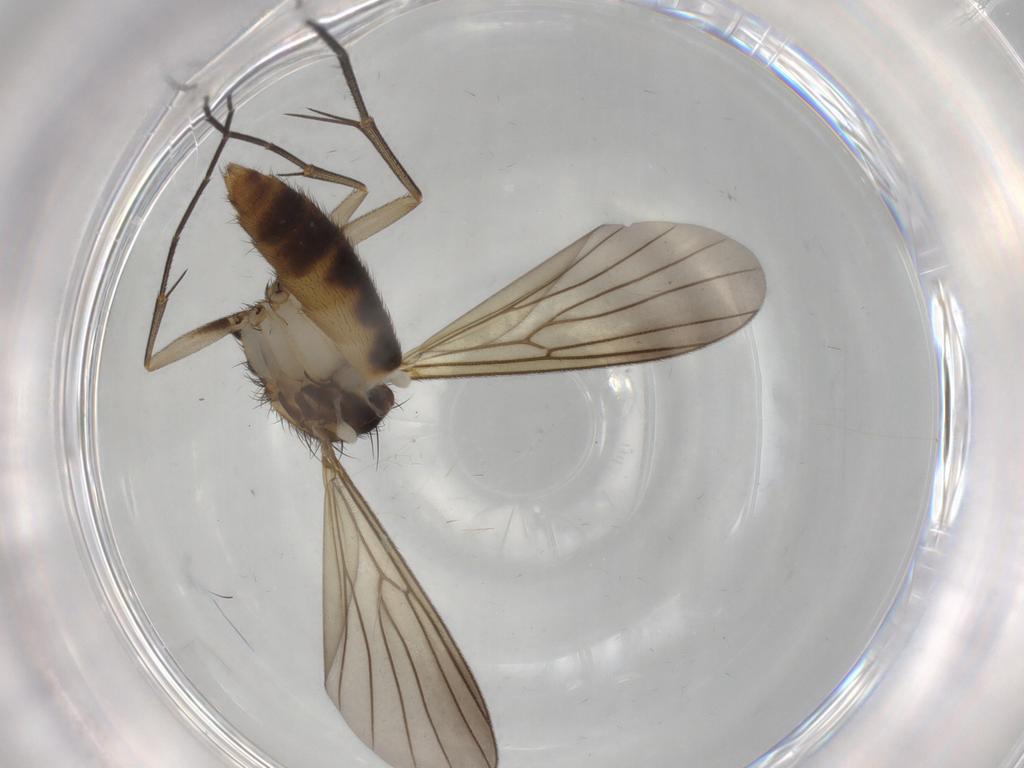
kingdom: Animalia
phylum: Arthropoda
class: Insecta
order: Diptera
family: Mycetophilidae
